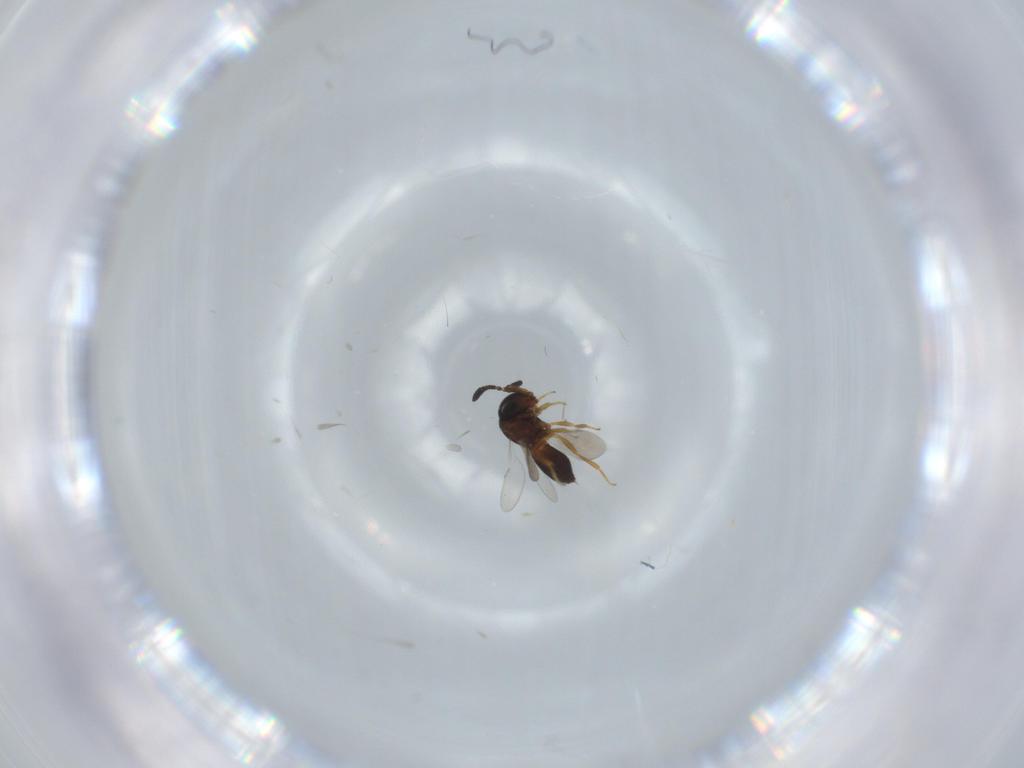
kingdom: Animalia
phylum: Arthropoda
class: Insecta
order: Hymenoptera
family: Scelionidae
